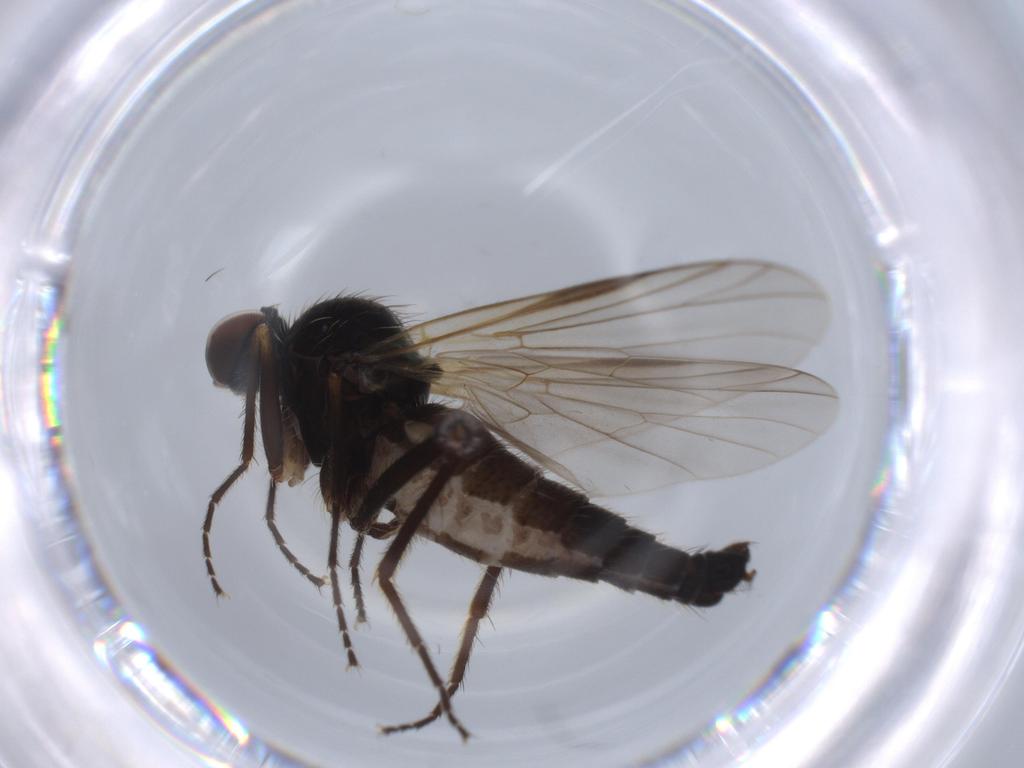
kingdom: Animalia
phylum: Arthropoda
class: Insecta
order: Diptera
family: Empididae
